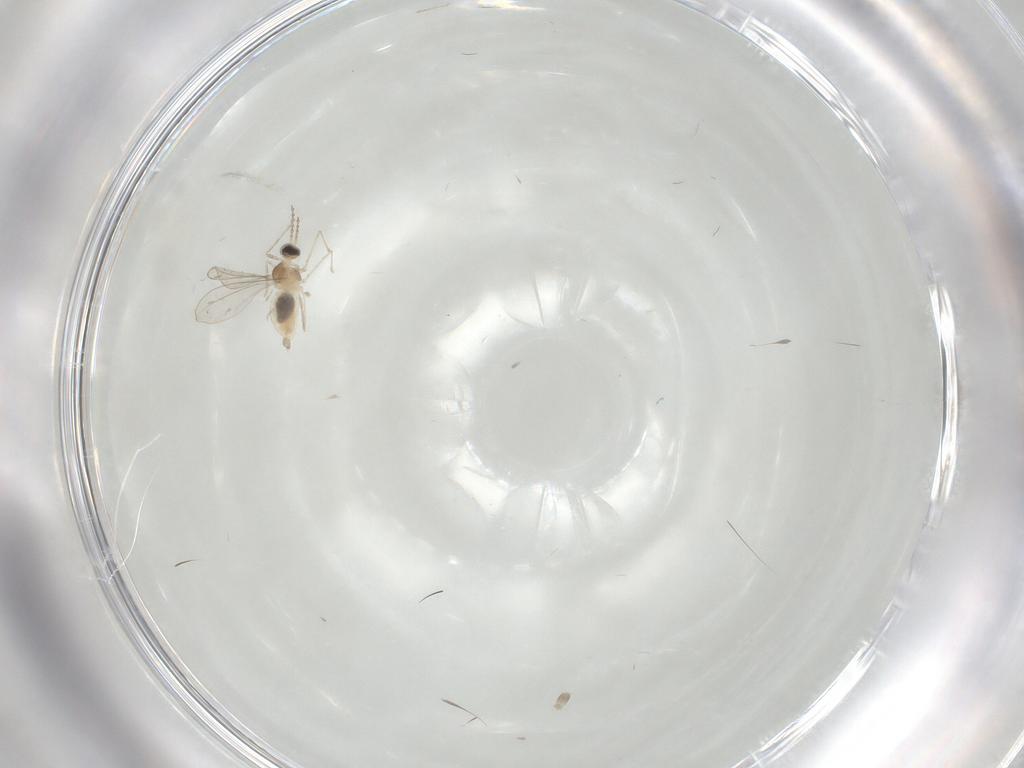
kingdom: Animalia
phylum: Arthropoda
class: Insecta
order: Diptera
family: Cecidomyiidae
